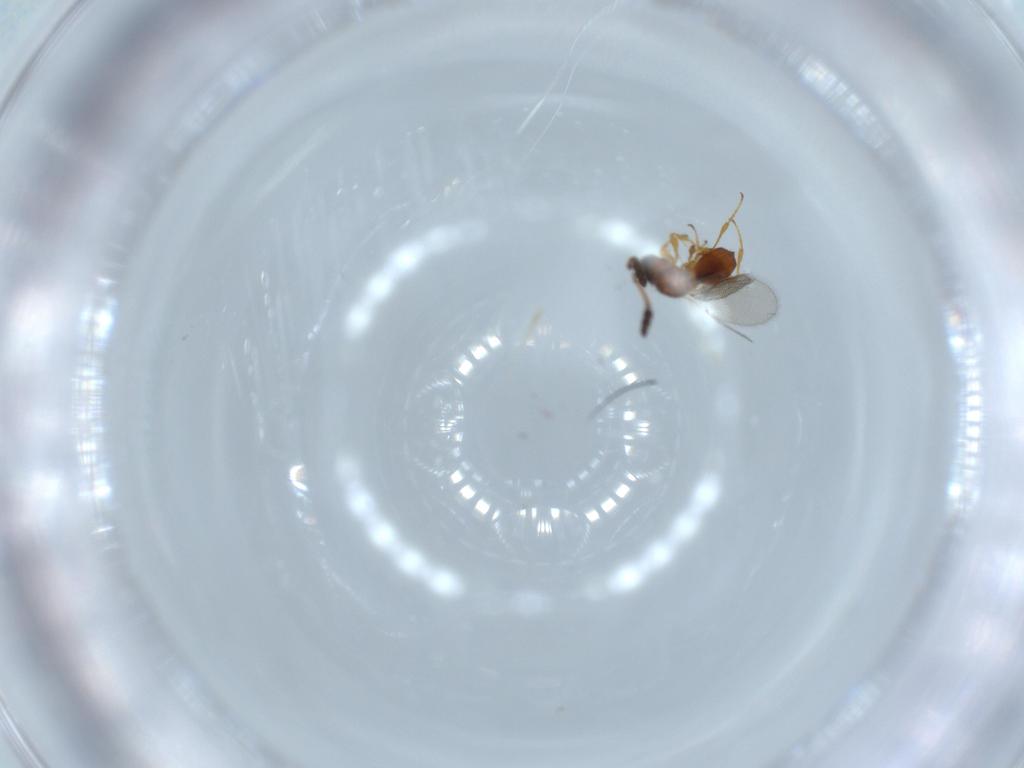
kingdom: Animalia
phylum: Arthropoda
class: Insecta
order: Hymenoptera
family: Diapriidae
